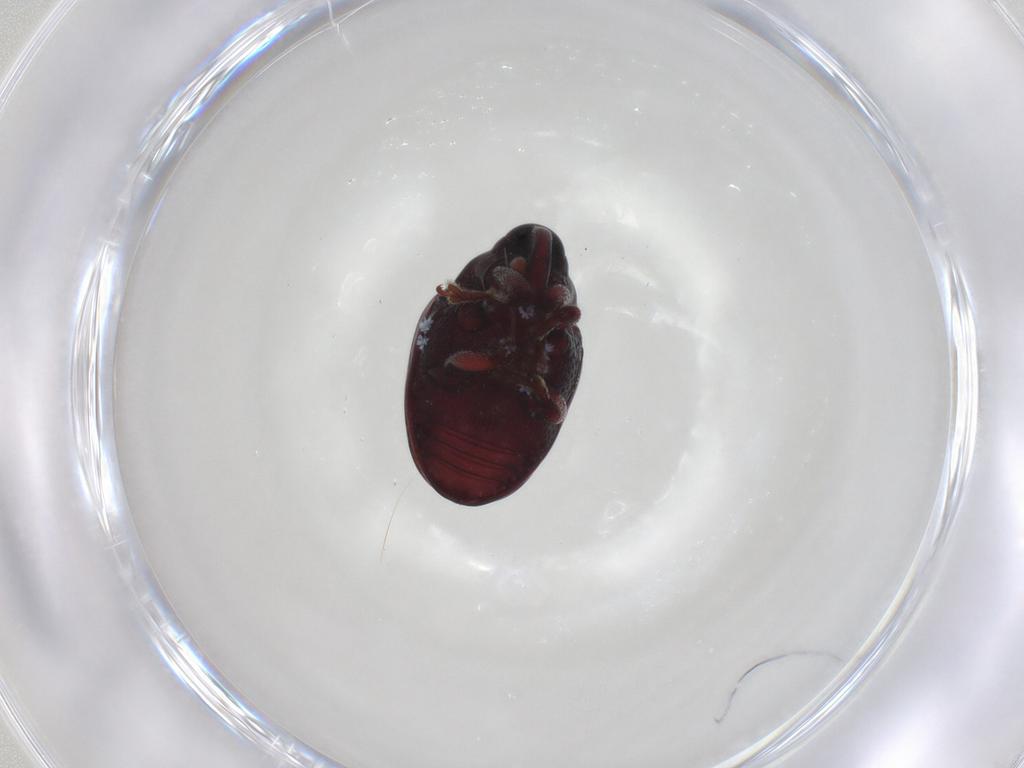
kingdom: Animalia
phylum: Arthropoda
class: Insecta
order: Coleoptera
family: Curculionidae
